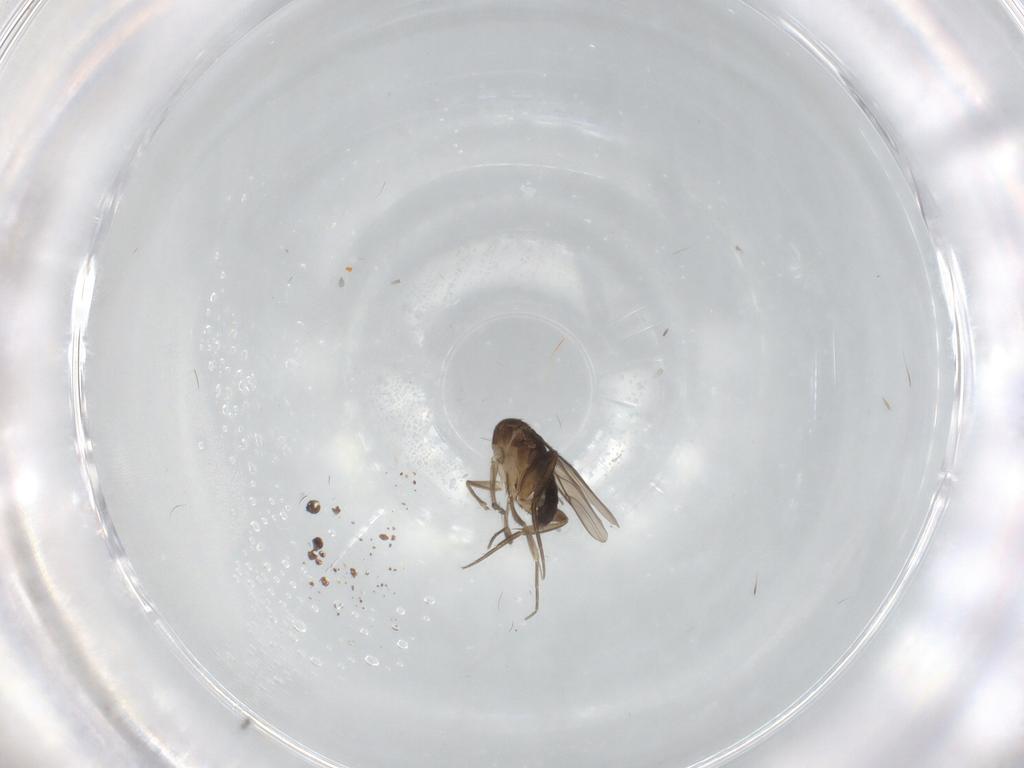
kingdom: Animalia
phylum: Arthropoda
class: Insecta
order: Diptera
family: Phoridae
